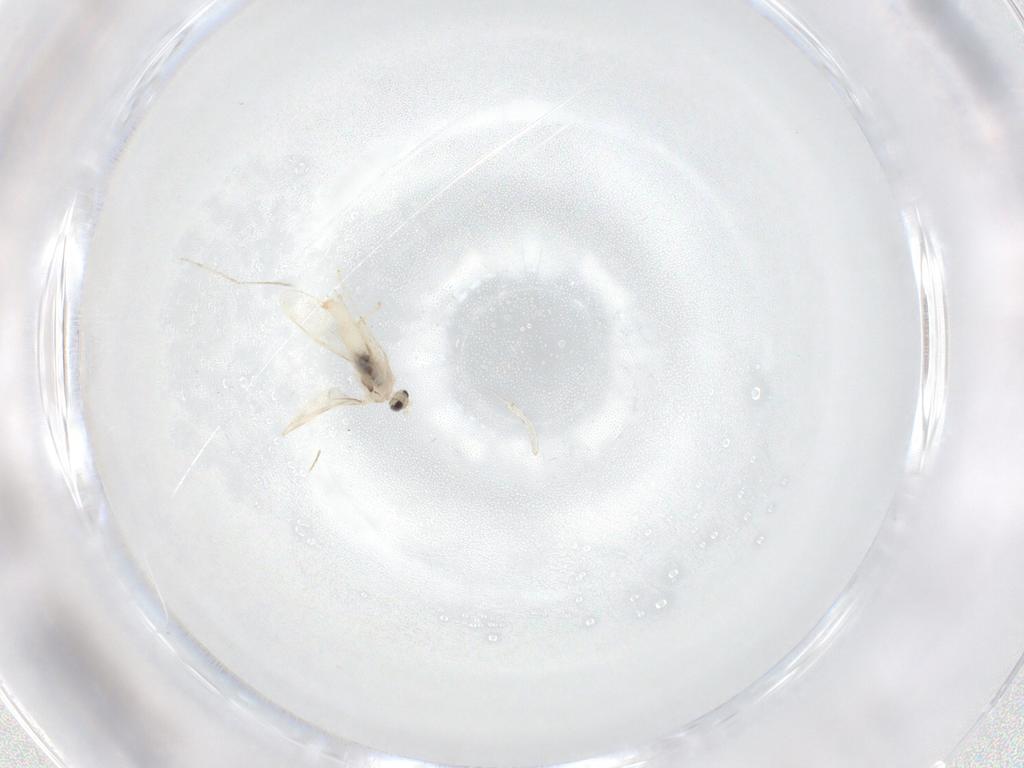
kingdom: Animalia
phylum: Arthropoda
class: Insecta
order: Diptera
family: Cecidomyiidae
